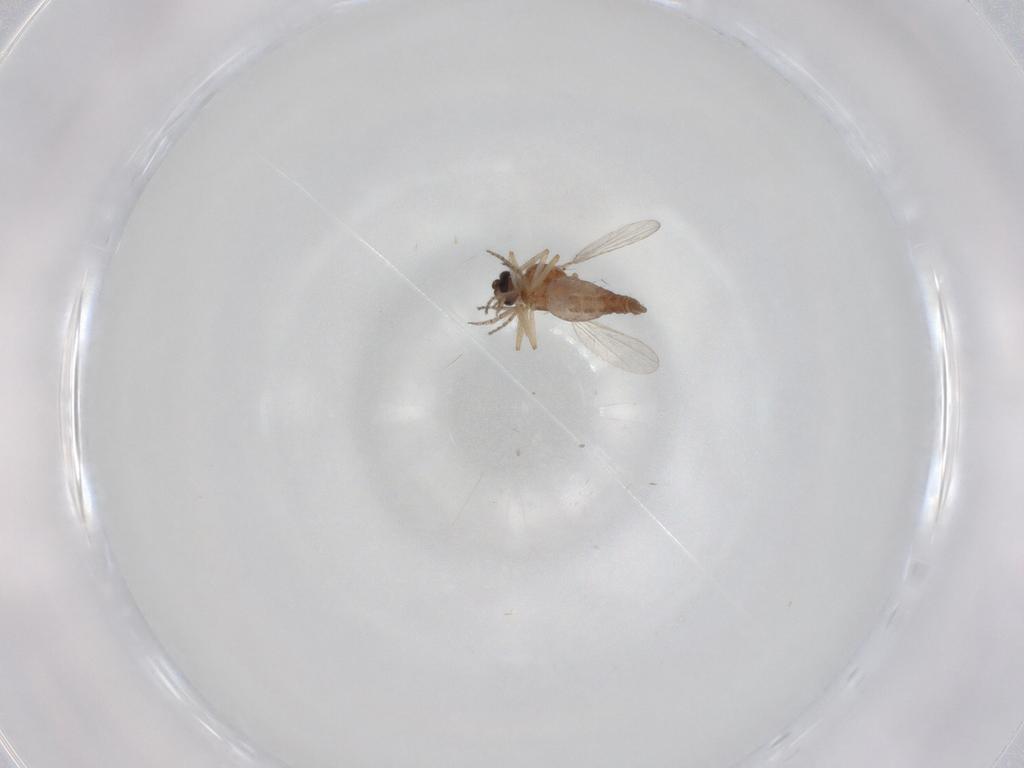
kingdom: Animalia
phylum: Arthropoda
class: Insecta
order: Diptera
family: Ceratopogonidae
